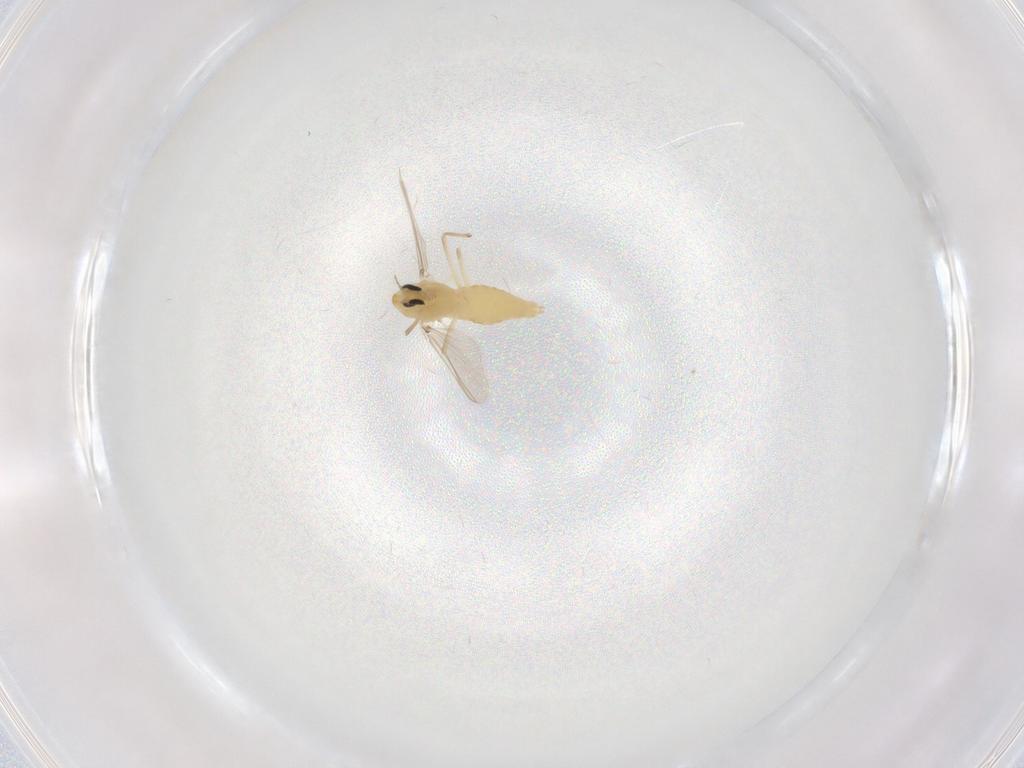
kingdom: Animalia
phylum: Arthropoda
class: Insecta
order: Diptera
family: Chironomidae
